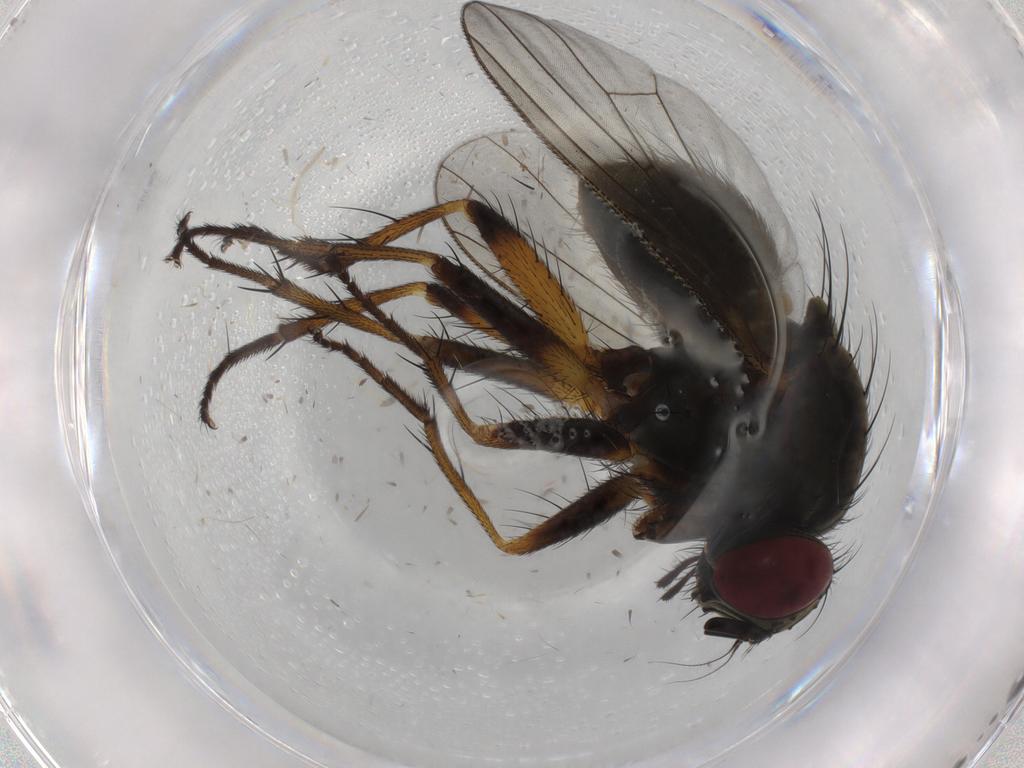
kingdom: Animalia
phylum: Arthropoda
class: Insecta
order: Diptera
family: Muscidae
